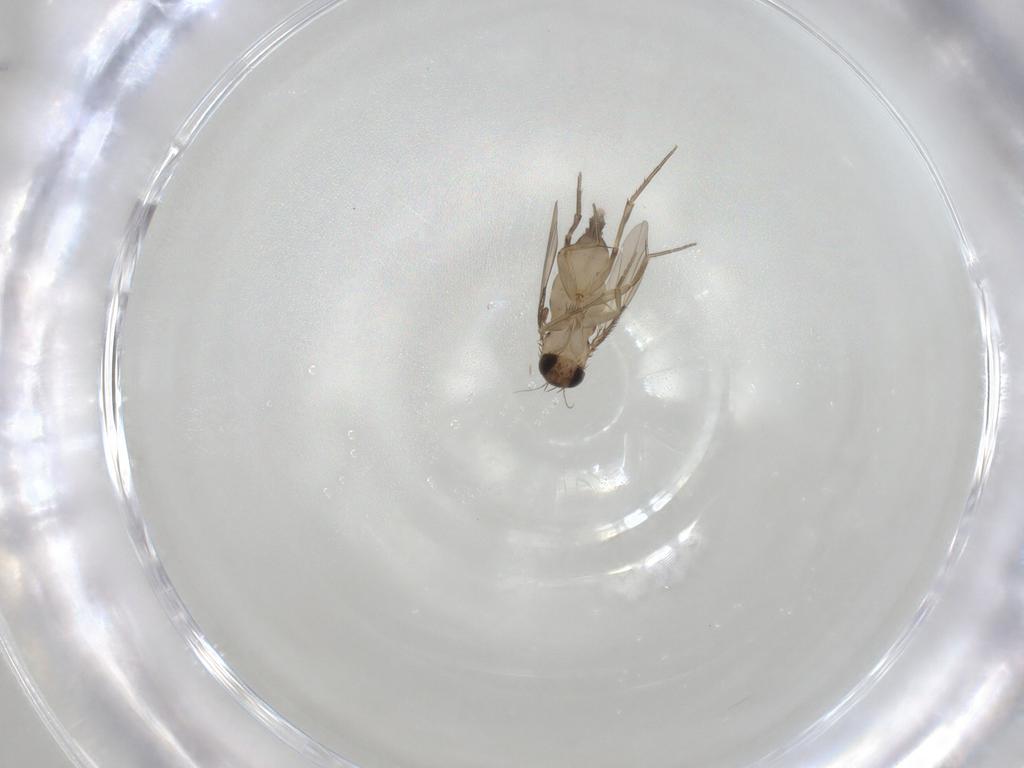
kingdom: Animalia
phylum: Arthropoda
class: Insecta
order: Diptera
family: Phoridae
